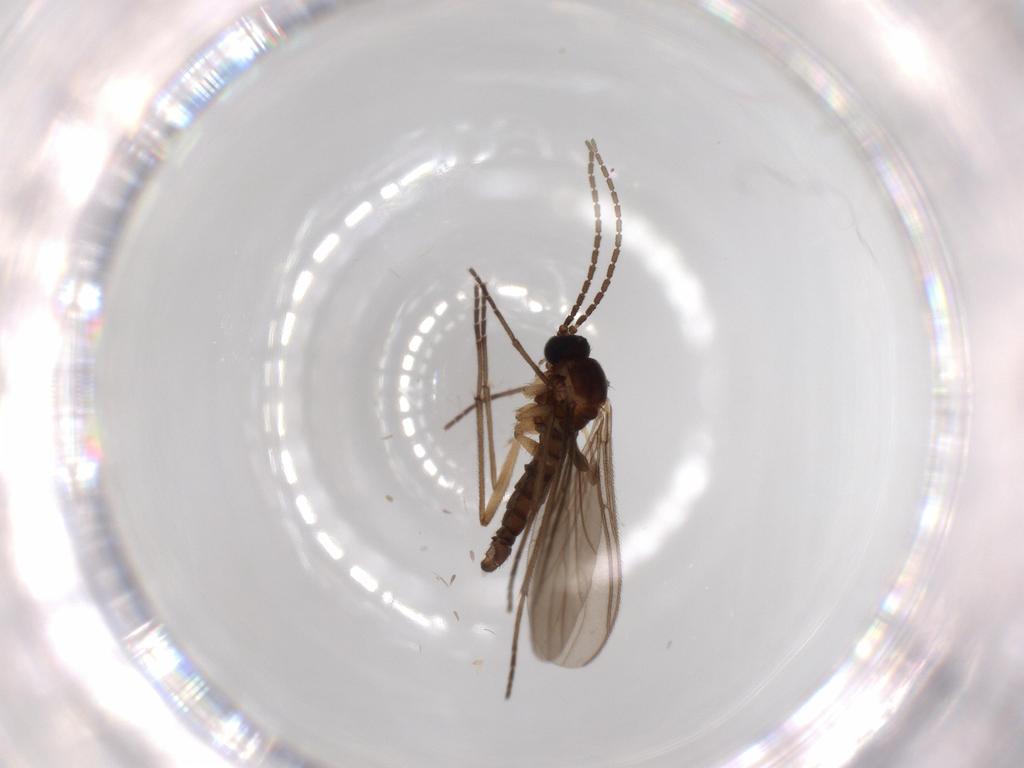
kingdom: Animalia
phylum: Arthropoda
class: Insecta
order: Diptera
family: Sciaridae
